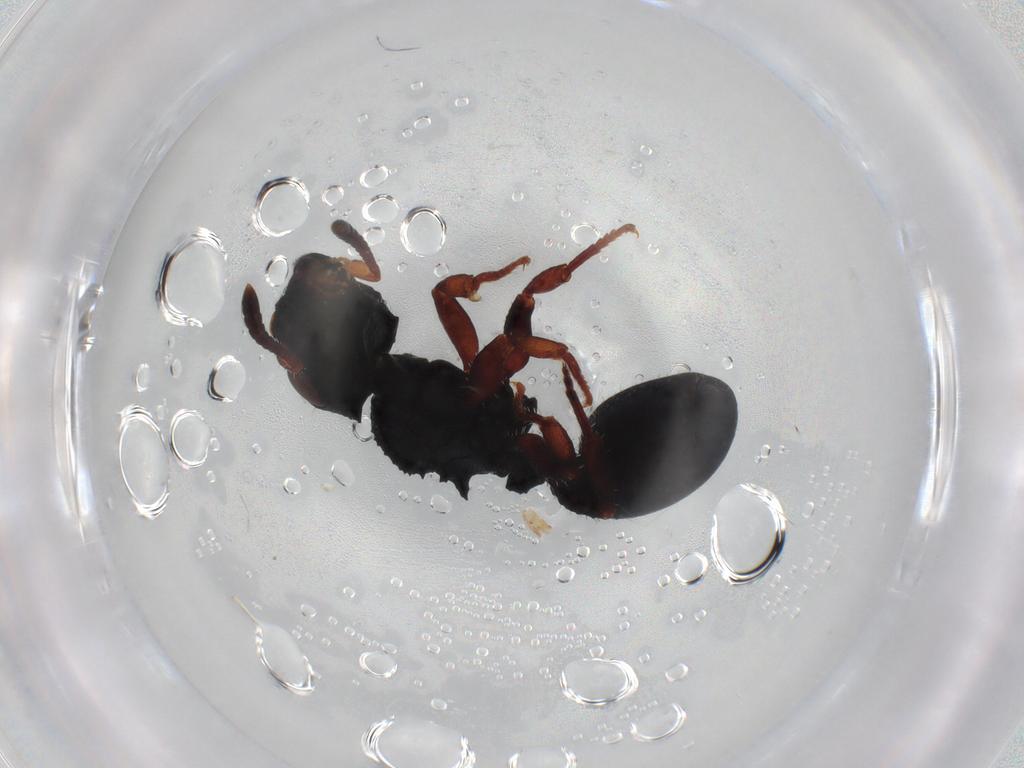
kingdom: Animalia
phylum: Arthropoda
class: Insecta
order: Hymenoptera
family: Formicidae
